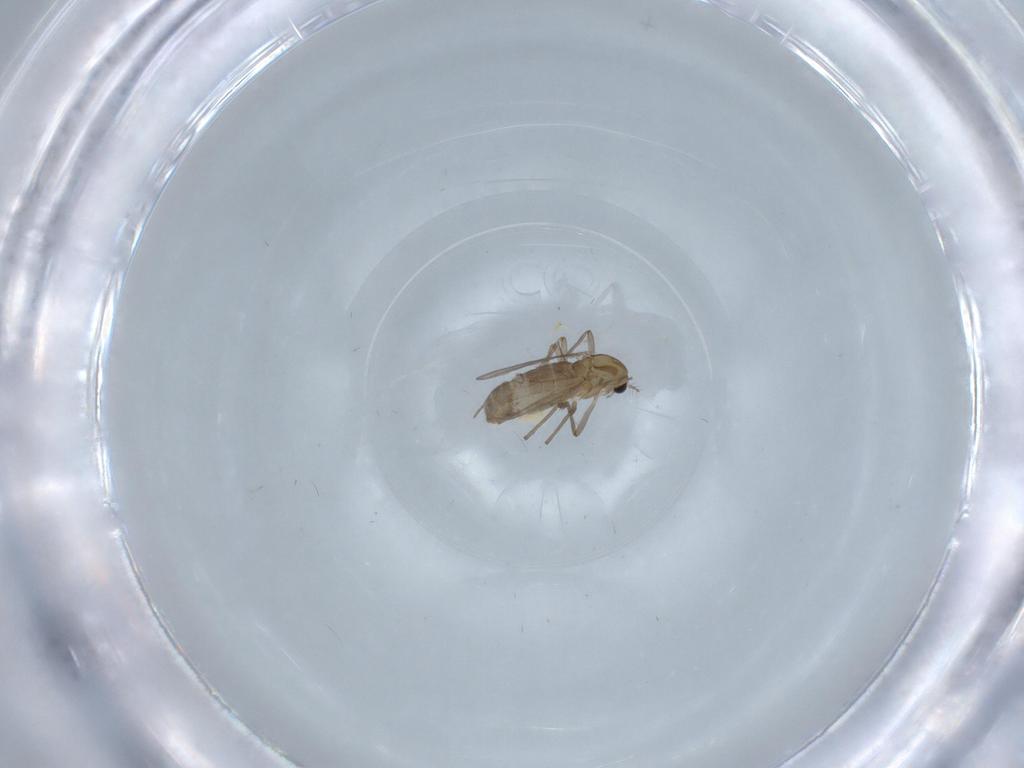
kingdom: Animalia
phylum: Arthropoda
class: Insecta
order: Diptera
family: Chironomidae
